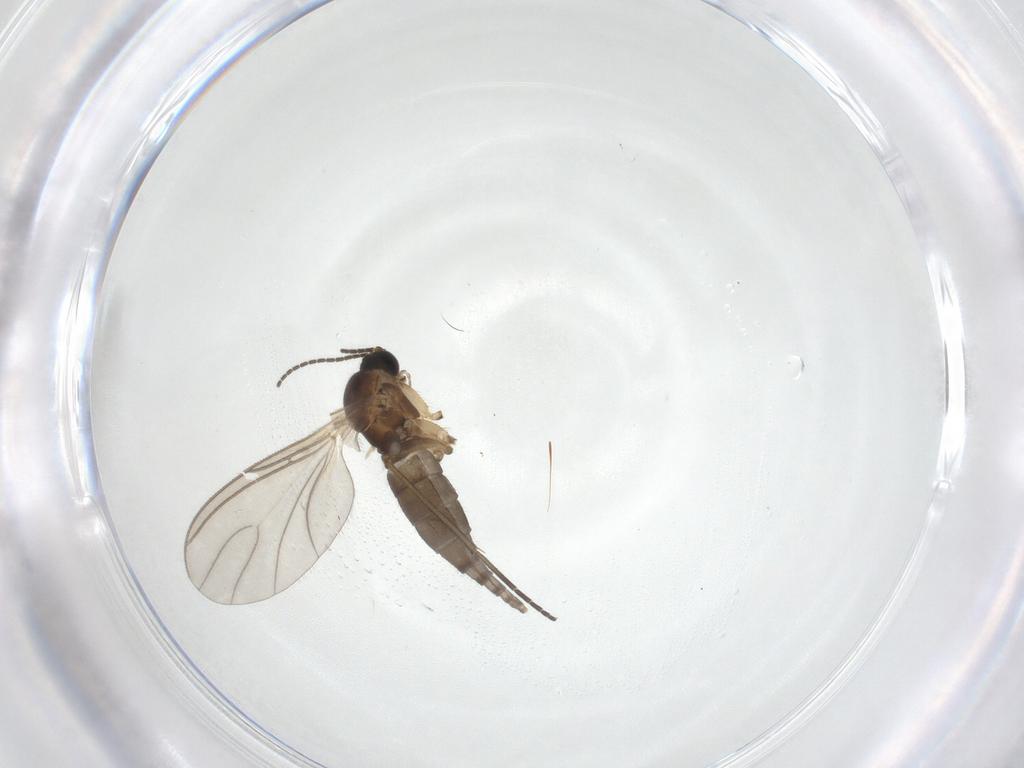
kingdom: Animalia
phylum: Arthropoda
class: Insecta
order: Diptera
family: Sciaridae
